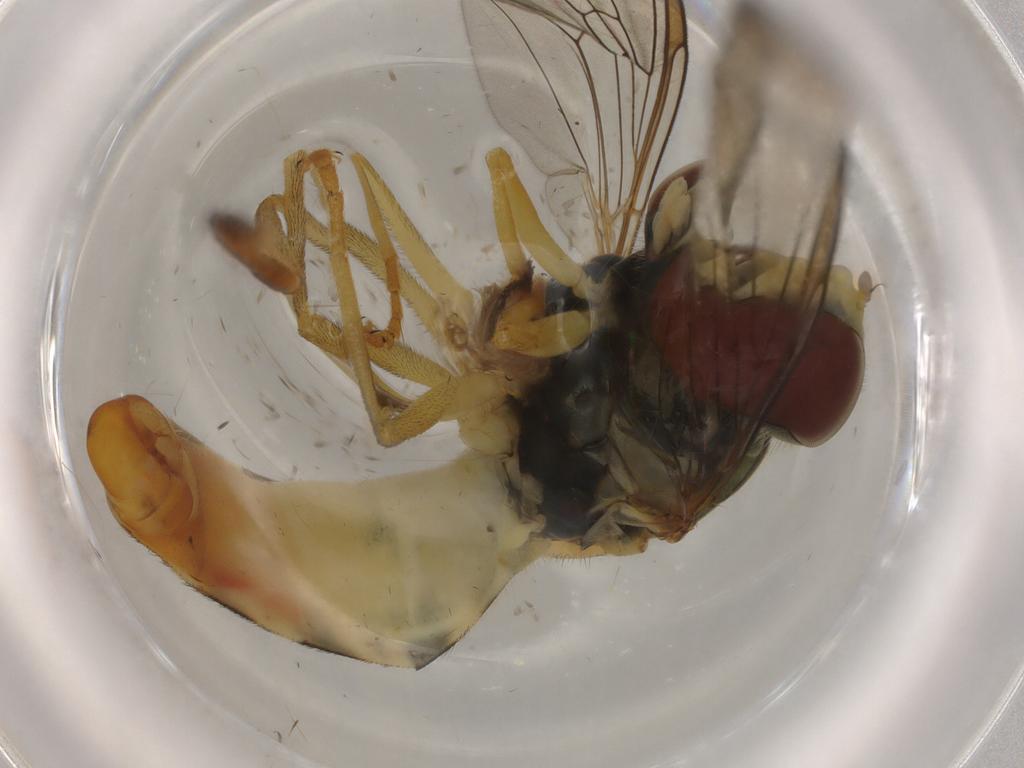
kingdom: Animalia
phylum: Arthropoda
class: Insecta
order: Diptera
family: Syrphidae
